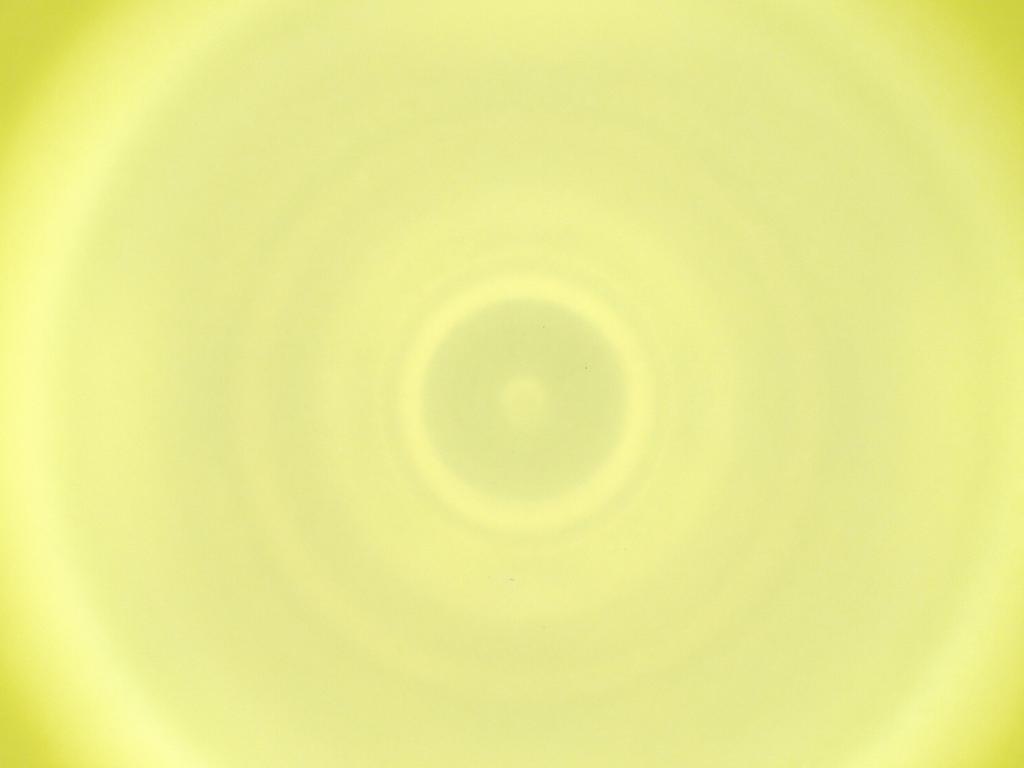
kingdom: Animalia
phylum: Arthropoda
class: Insecta
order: Diptera
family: Cecidomyiidae
